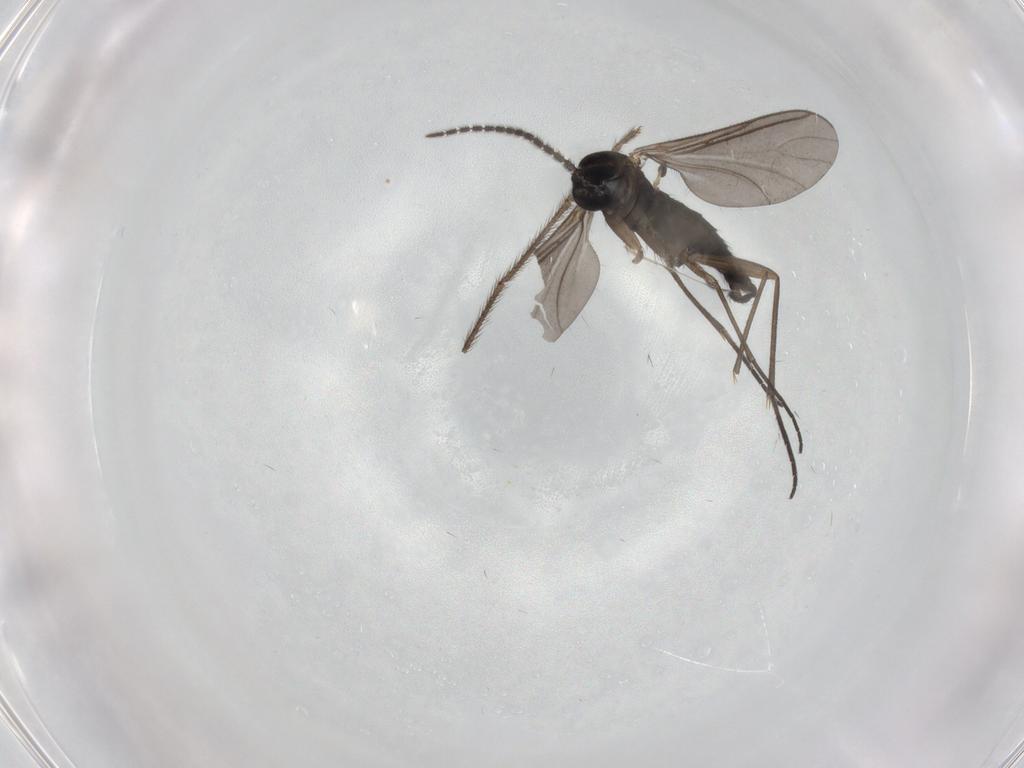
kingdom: Animalia
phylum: Arthropoda
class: Insecta
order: Diptera
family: Sciaridae
